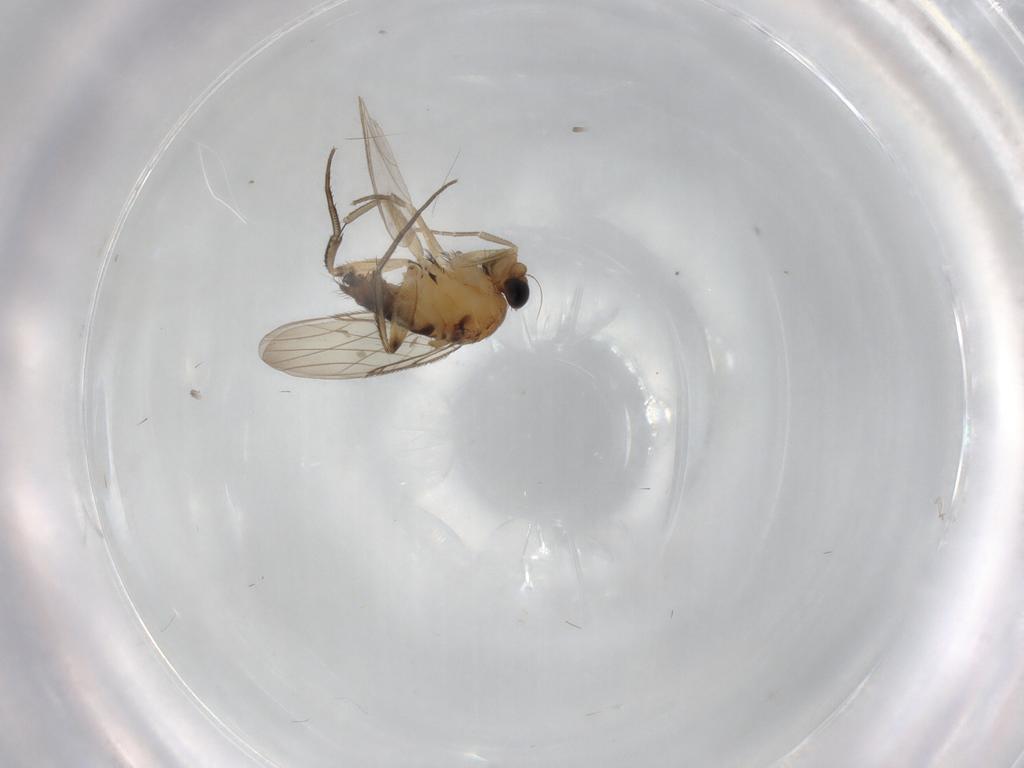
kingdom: Animalia
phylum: Arthropoda
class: Insecta
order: Diptera
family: Phoridae
